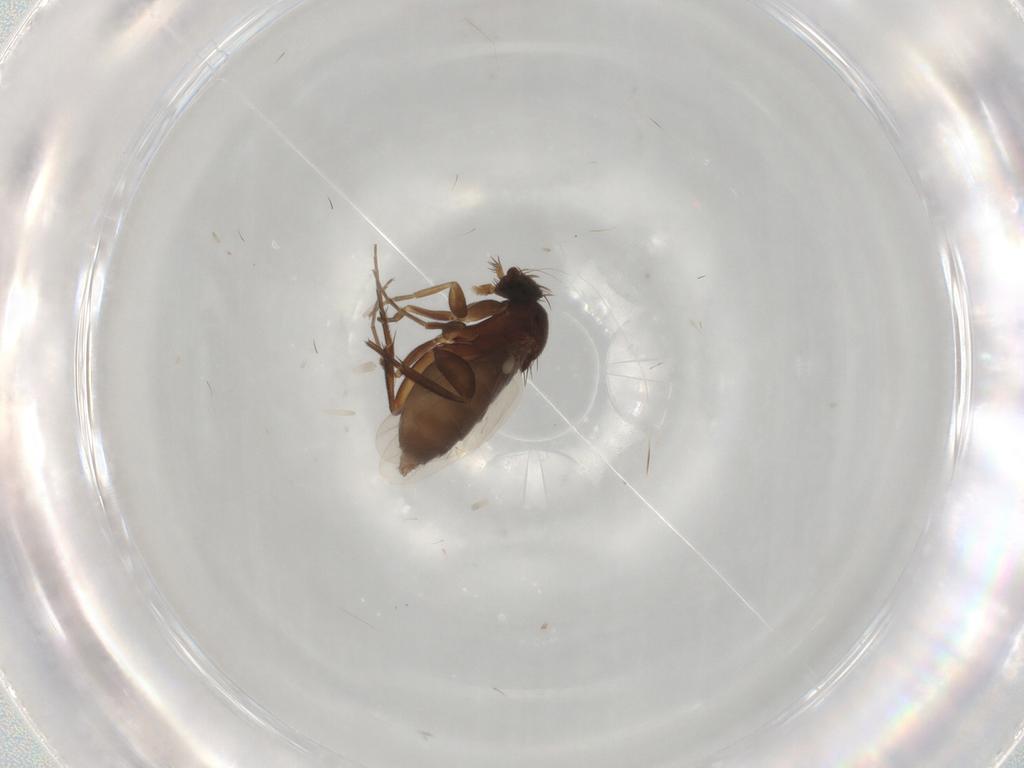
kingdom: Animalia
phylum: Arthropoda
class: Insecta
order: Diptera
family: Phoridae
